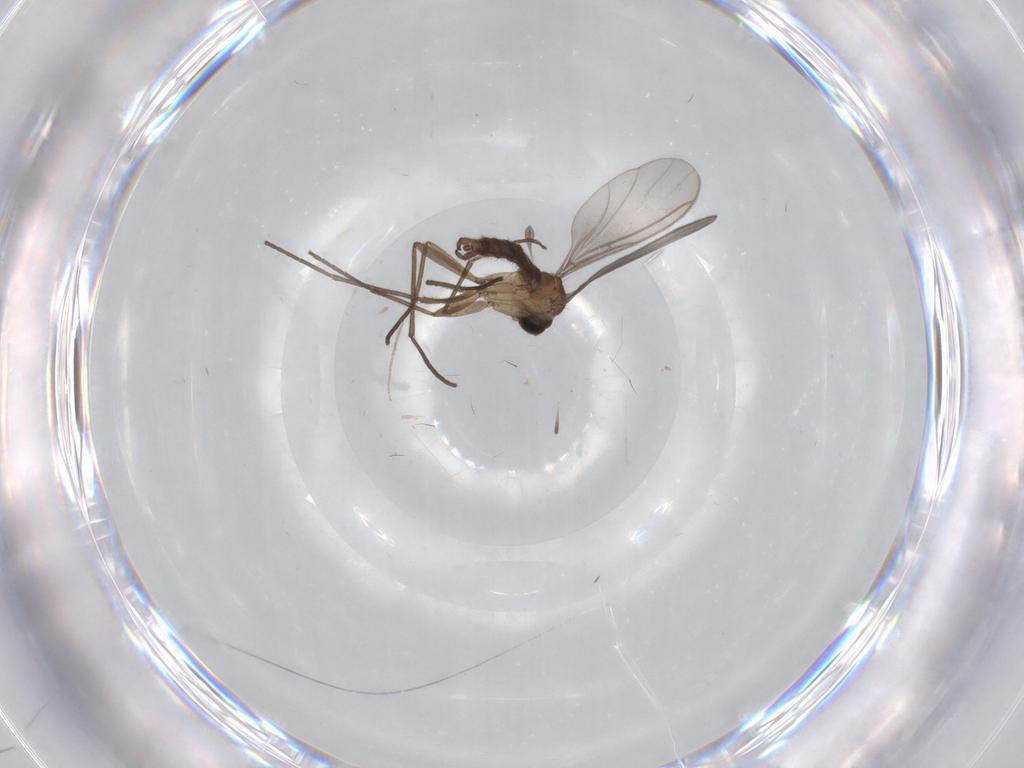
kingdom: Animalia
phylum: Arthropoda
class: Insecta
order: Diptera
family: Chironomidae
